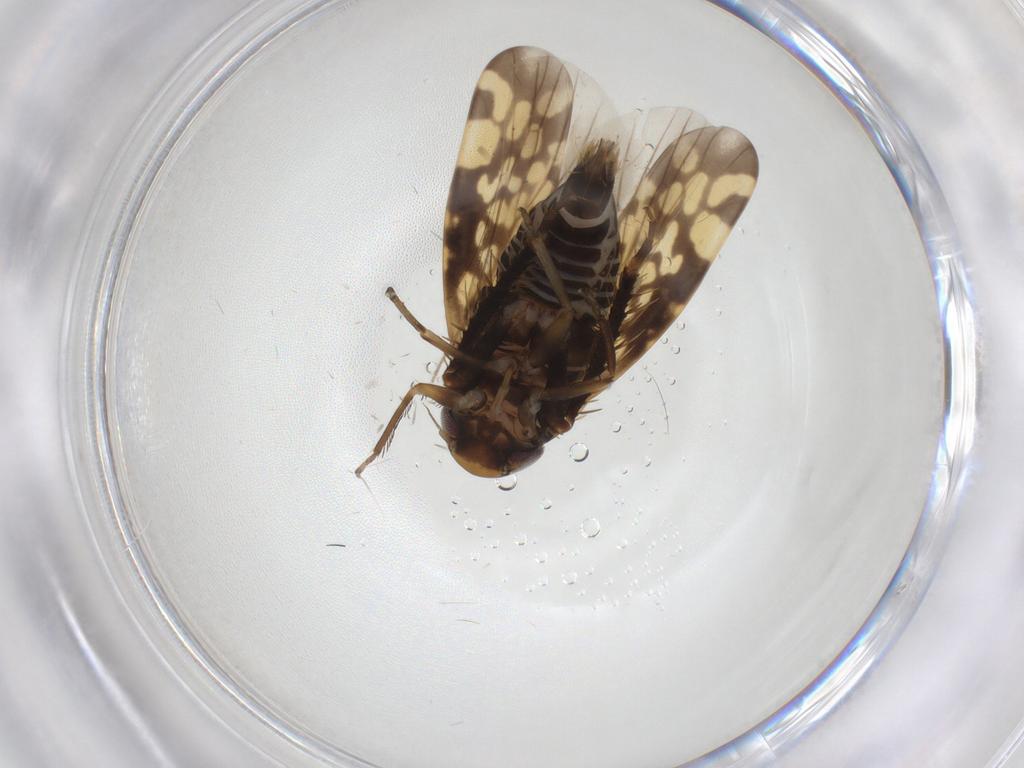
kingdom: Animalia
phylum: Arthropoda
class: Insecta
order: Hemiptera
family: Cicadellidae
